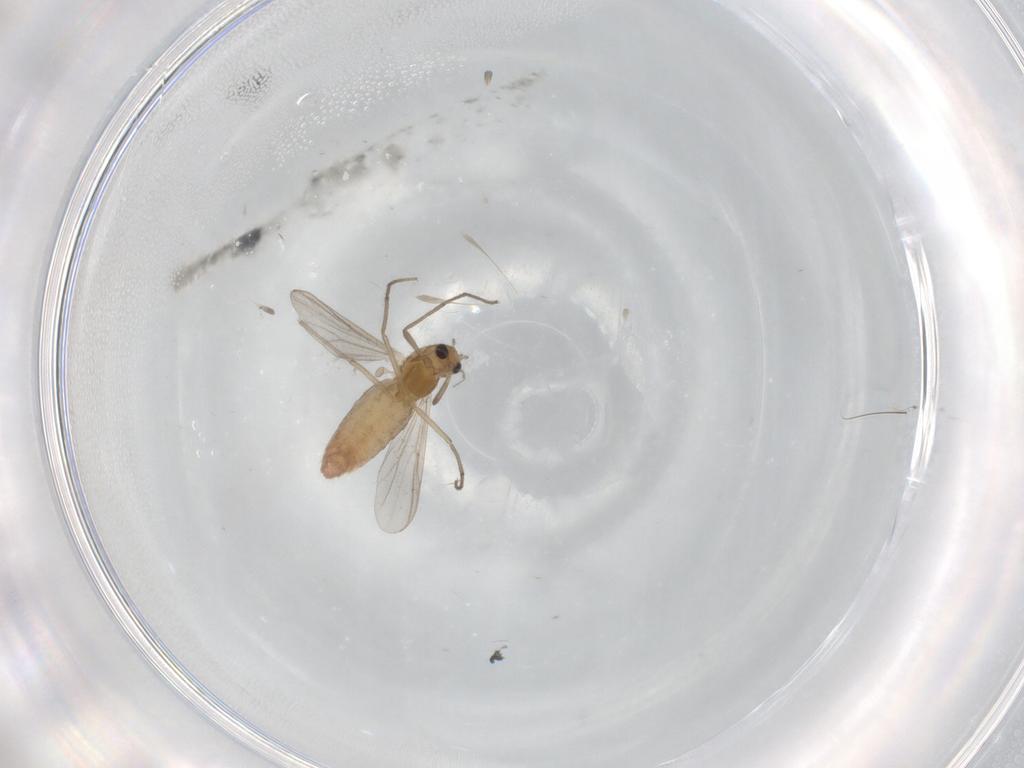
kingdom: Animalia
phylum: Arthropoda
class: Insecta
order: Diptera
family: Chironomidae
